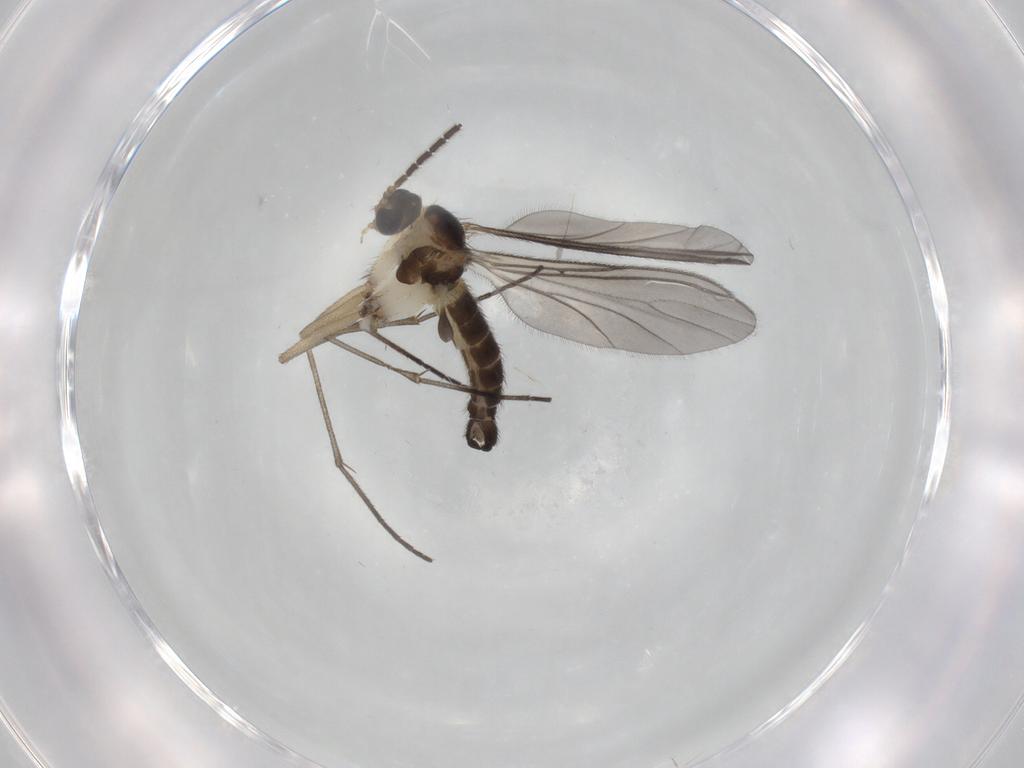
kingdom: Animalia
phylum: Arthropoda
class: Insecta
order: Diptera
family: Sciaridae
